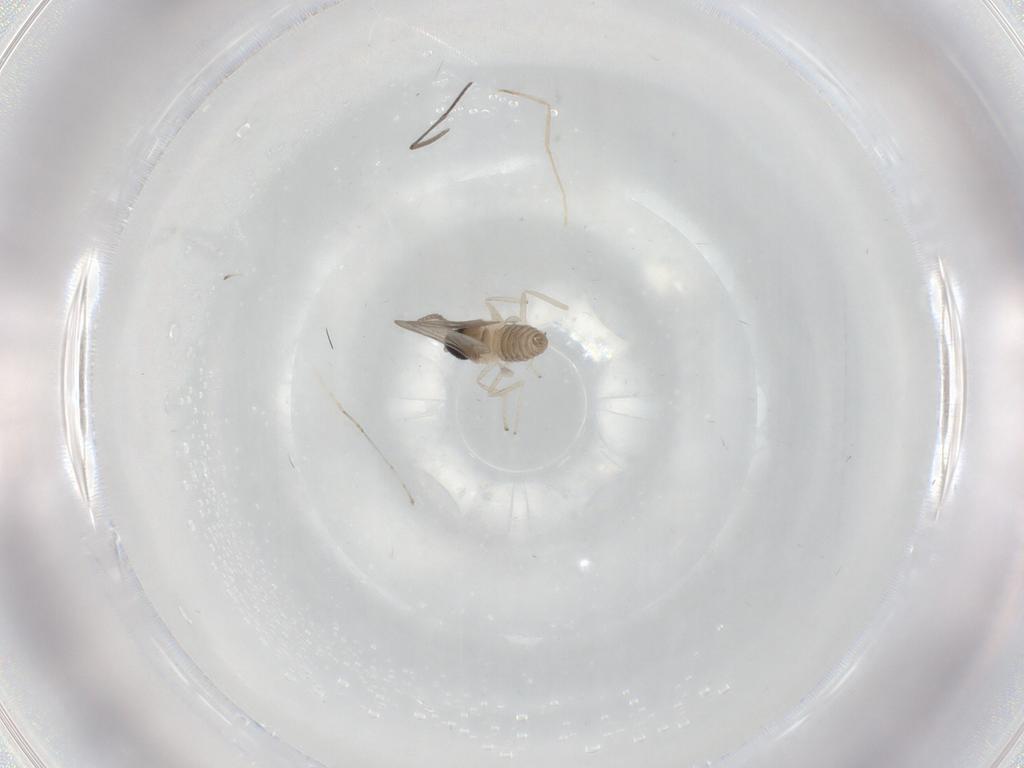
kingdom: Animalia
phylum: Arthropoda
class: Insecta
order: Diptera
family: Cecidomyiidae
